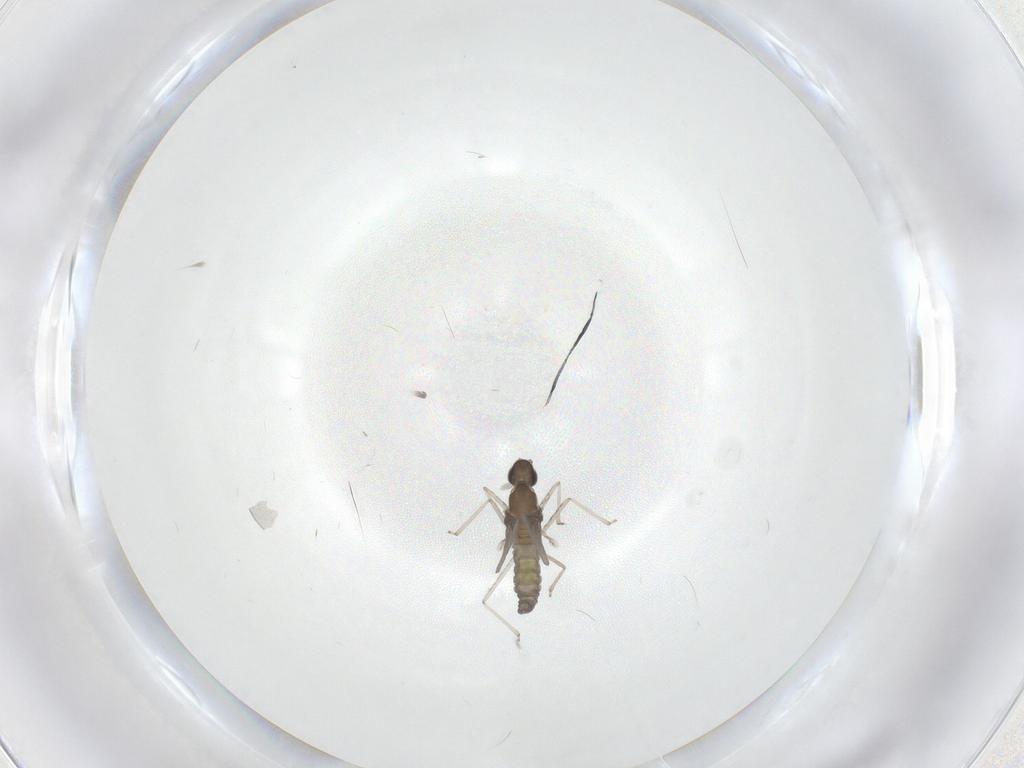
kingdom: Animalia
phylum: Arthropoda
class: Insecta
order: Diptera
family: Cecidomyiidae
